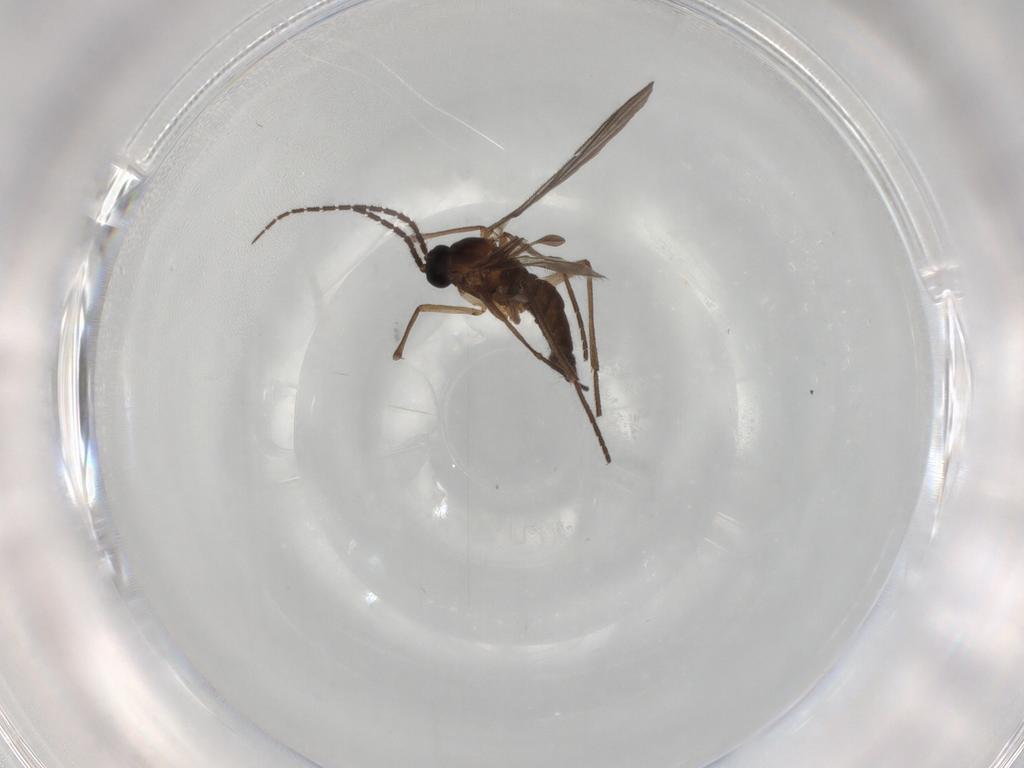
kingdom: Animalia
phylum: Arthropoda
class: Insecta
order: Diptera
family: Sciaridae
